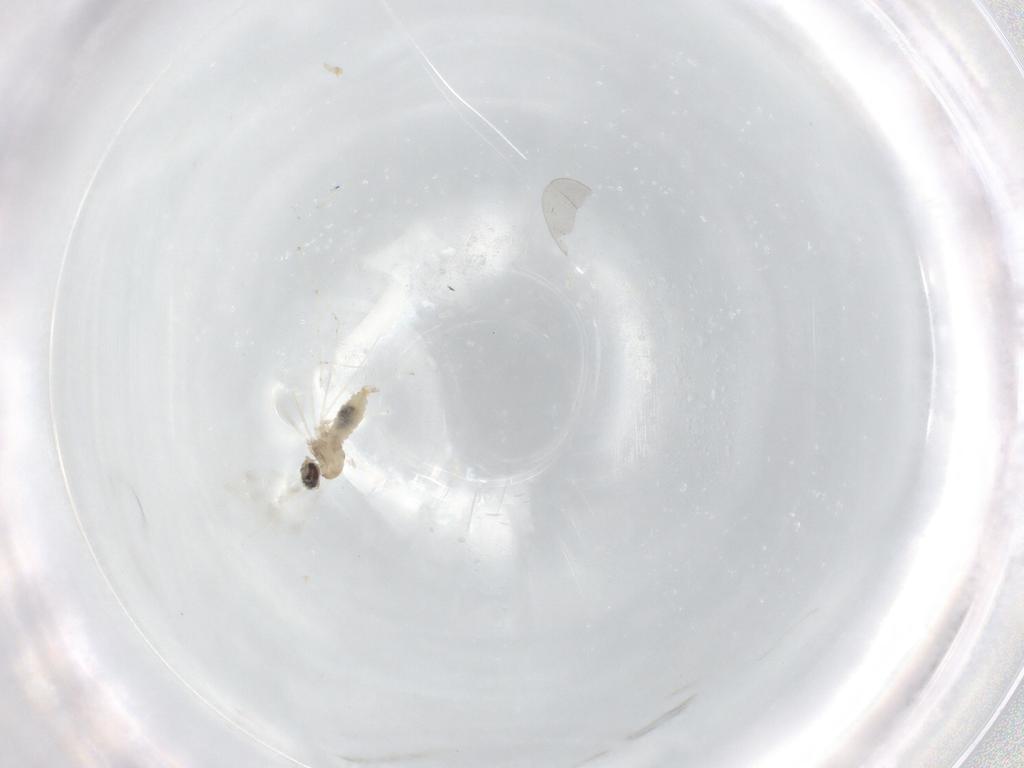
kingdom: Animalia
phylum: Arthropoda
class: Insecta
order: Diptera
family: Cecidomyiidae
